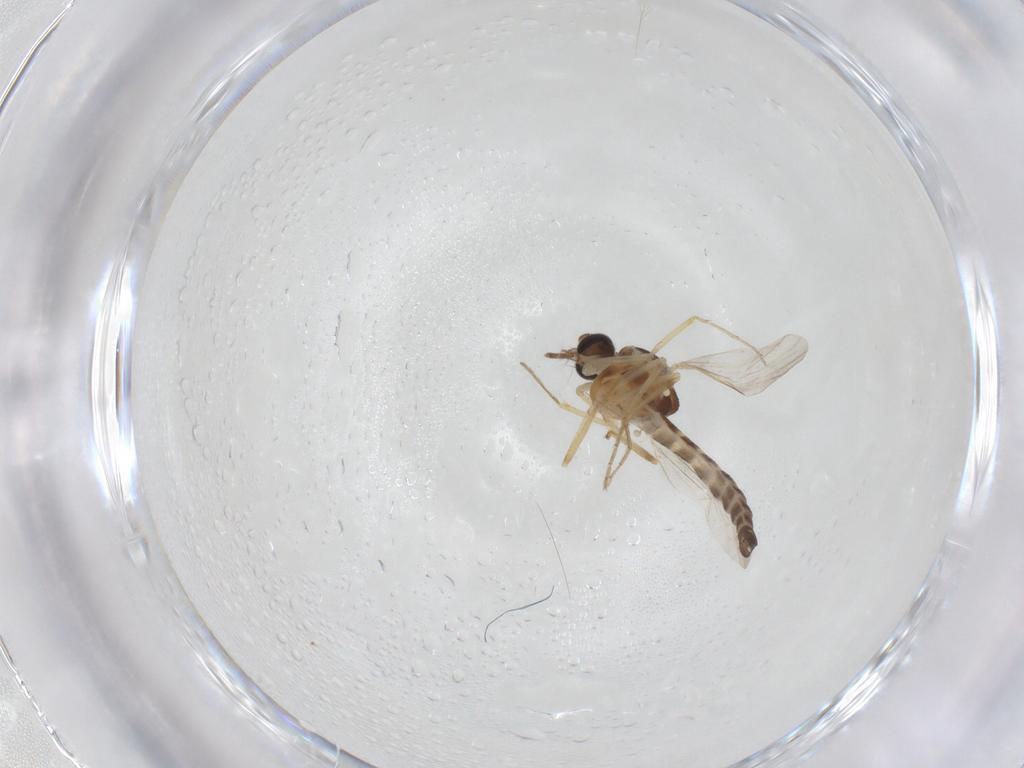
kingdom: Animalia
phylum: Arthropoda
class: Insecta
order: Diptera
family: Ceratopogonidae
